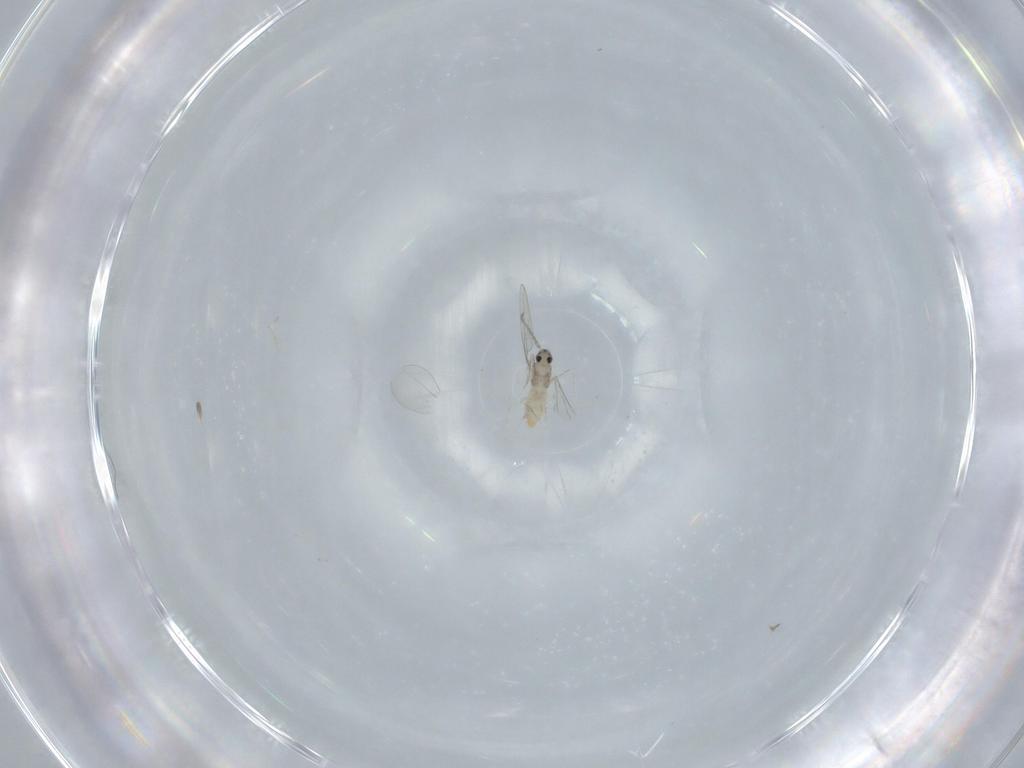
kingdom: Animalia
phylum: Arthropoda
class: Insecta
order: Diptera
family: Cecidomyiidae
